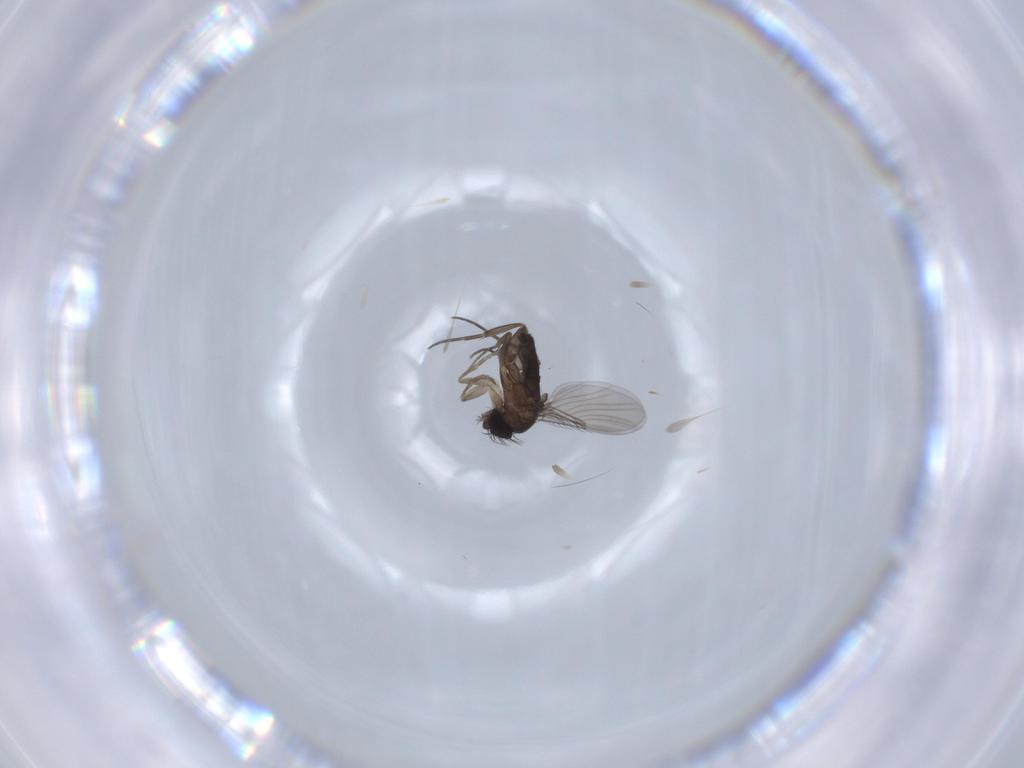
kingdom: Animalia
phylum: Arthropoda
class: Insecta
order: Diptera
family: Phoridae
